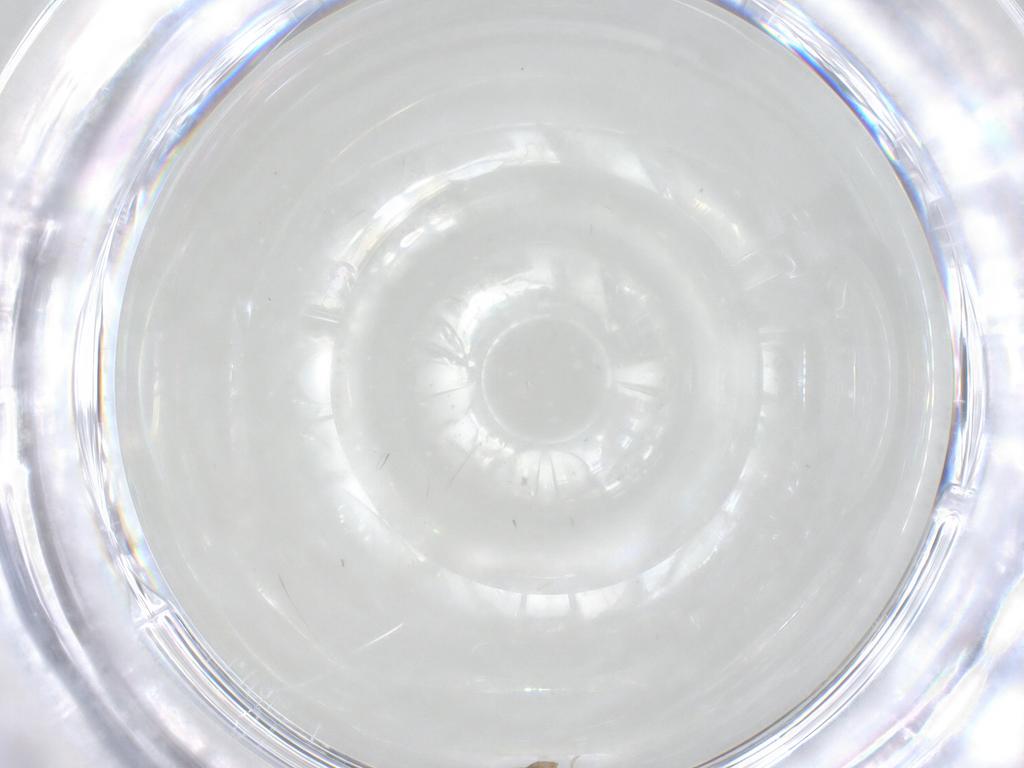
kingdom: Animalia
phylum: Arthropoda
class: Insecta
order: Diptera
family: Cecidomyiidae
